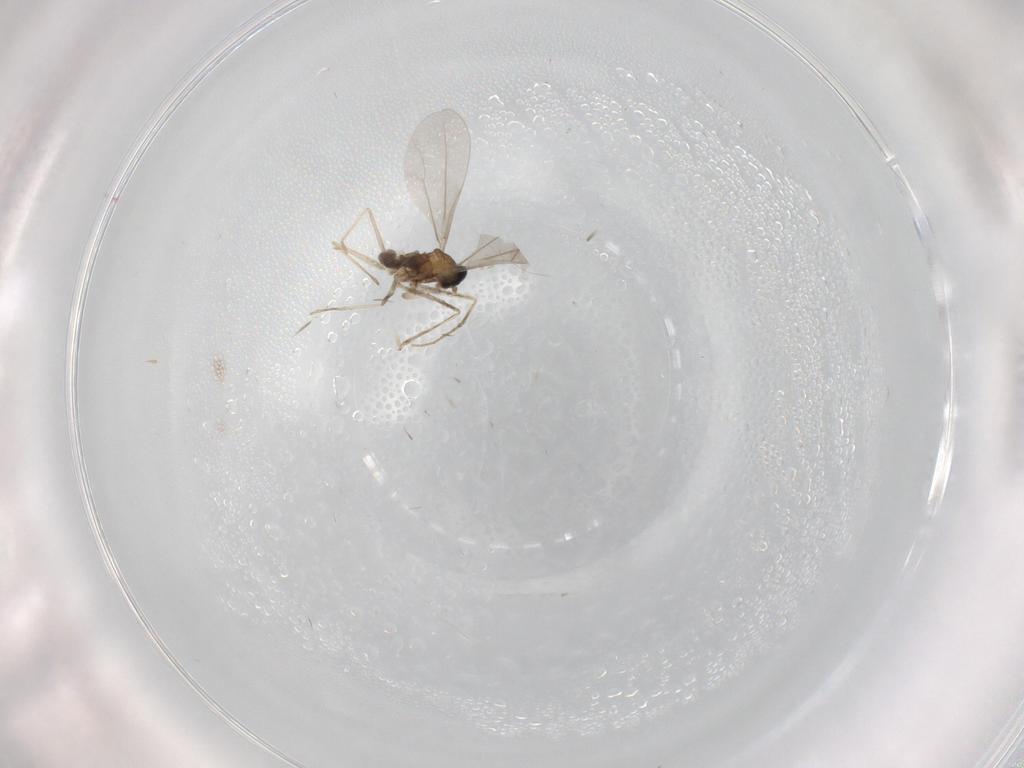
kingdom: Animalia
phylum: Arthropoda
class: Insecta
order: Diptera
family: Cecidomyiidae
